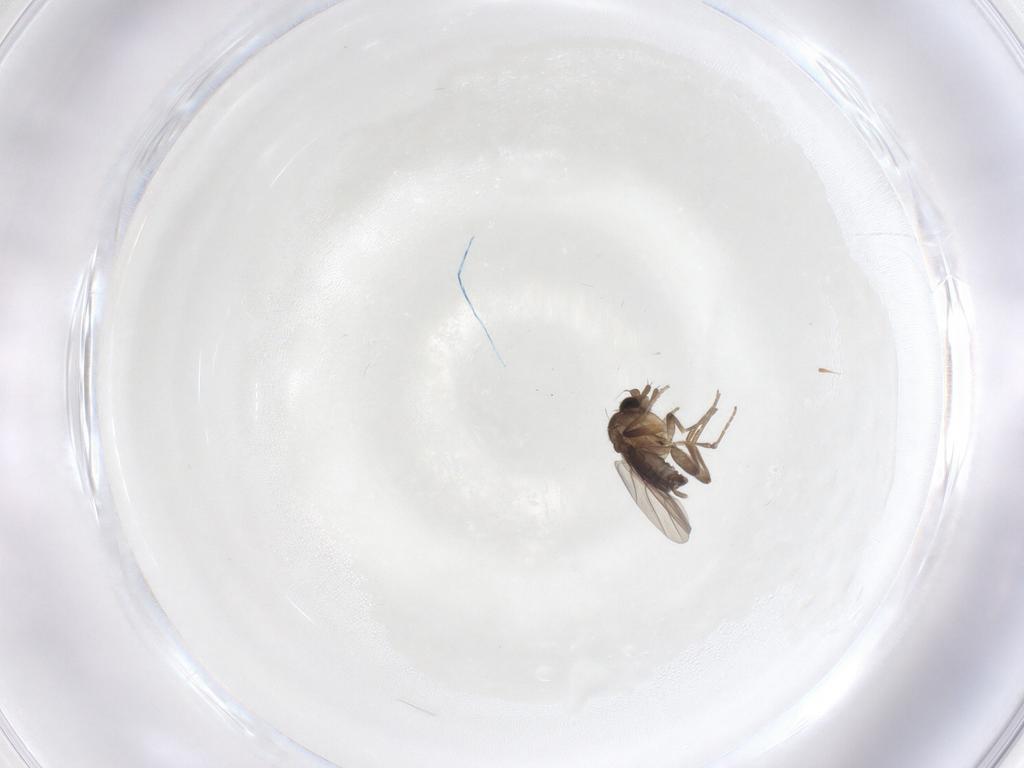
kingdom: Animalia
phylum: Arthropoda
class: Insecta
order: Diptera
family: Phoridae
